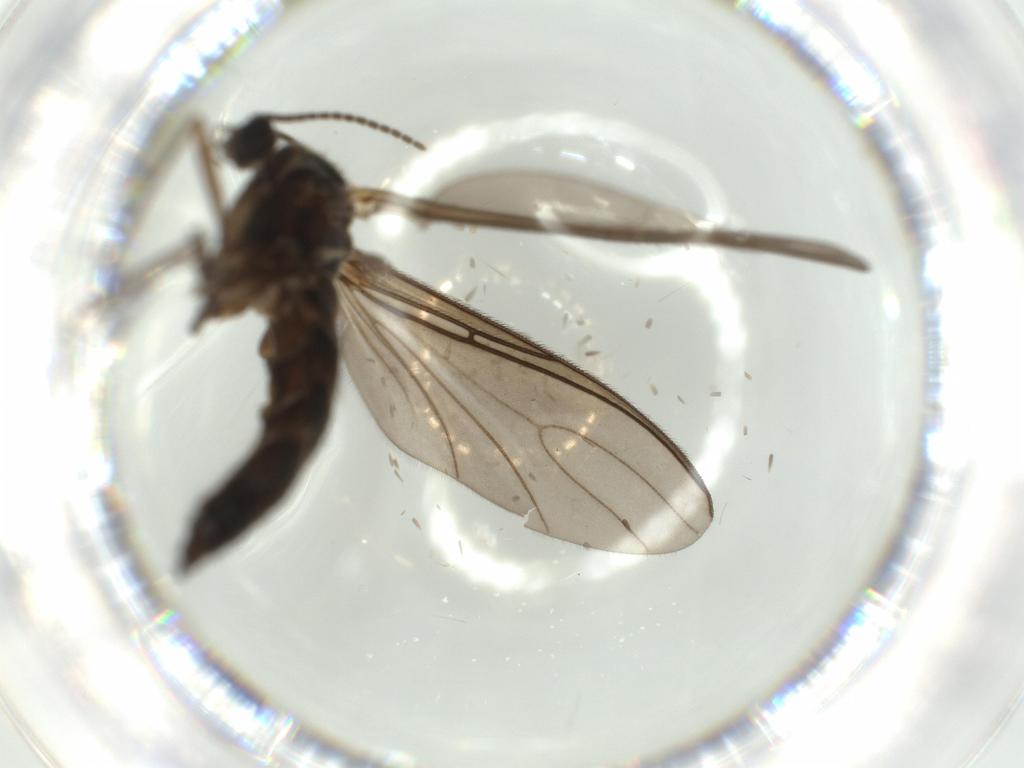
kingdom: Animalia
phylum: Arthropoda
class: Insecta
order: Diptera
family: Sciaridae
